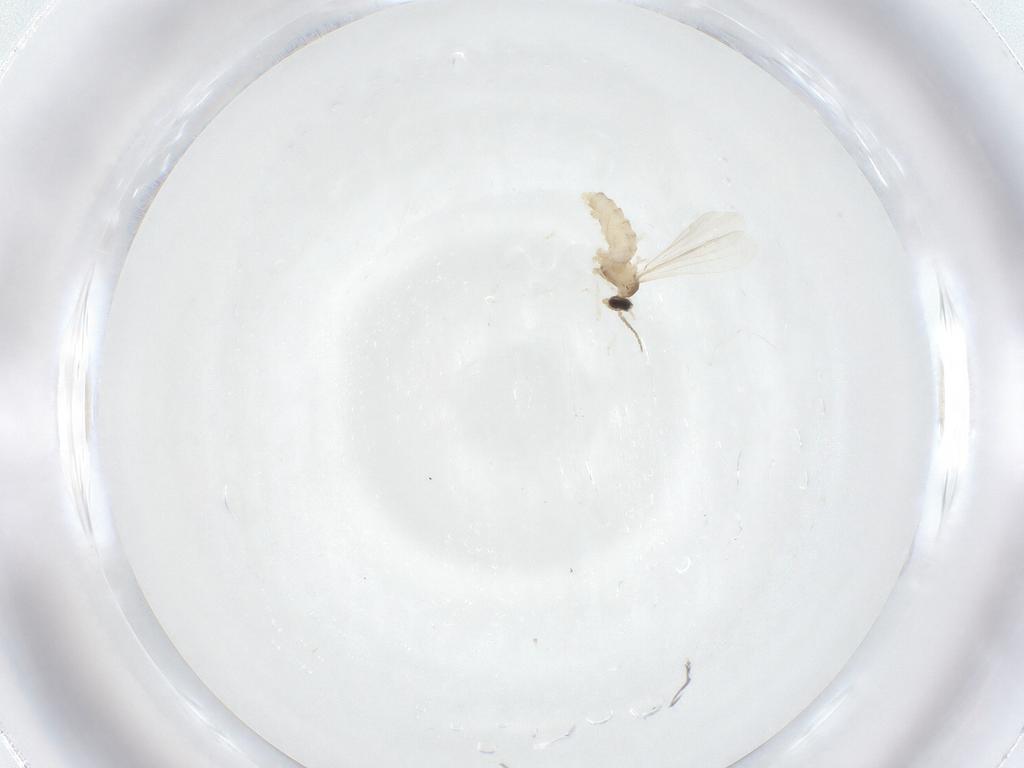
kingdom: Animalia
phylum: Arthropoda
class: Insecta
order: Diptera
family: Cecidomyiidae
